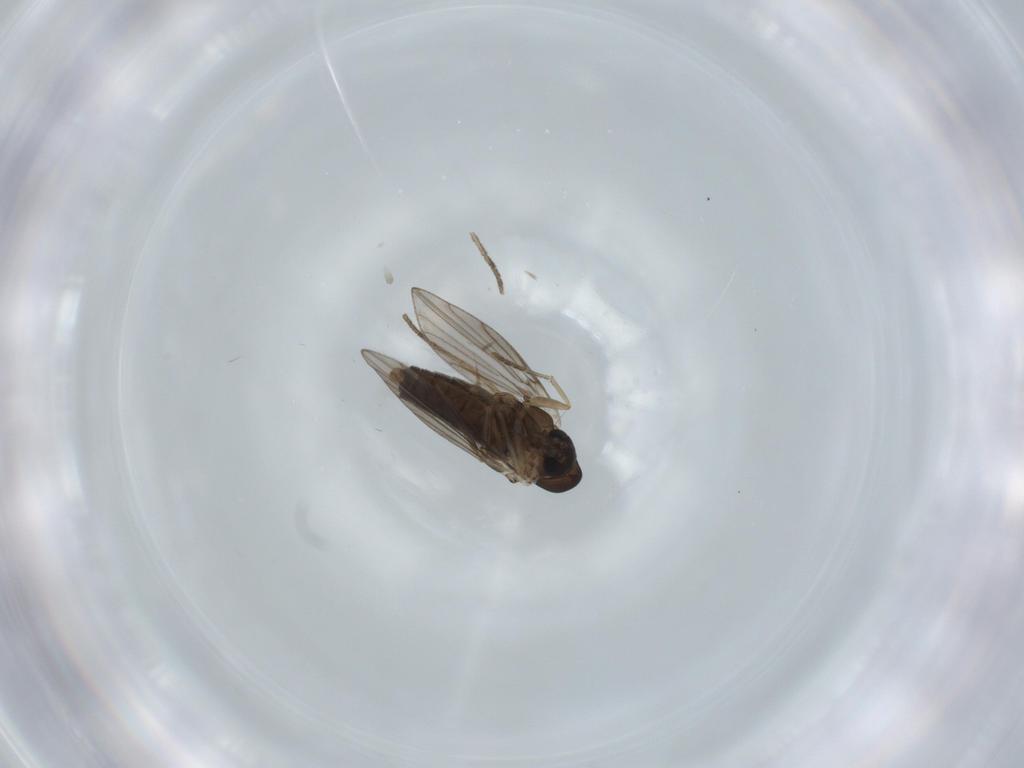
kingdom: Animalia
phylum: Arthropoda
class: Insecta
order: Diptera
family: Psychodidae
